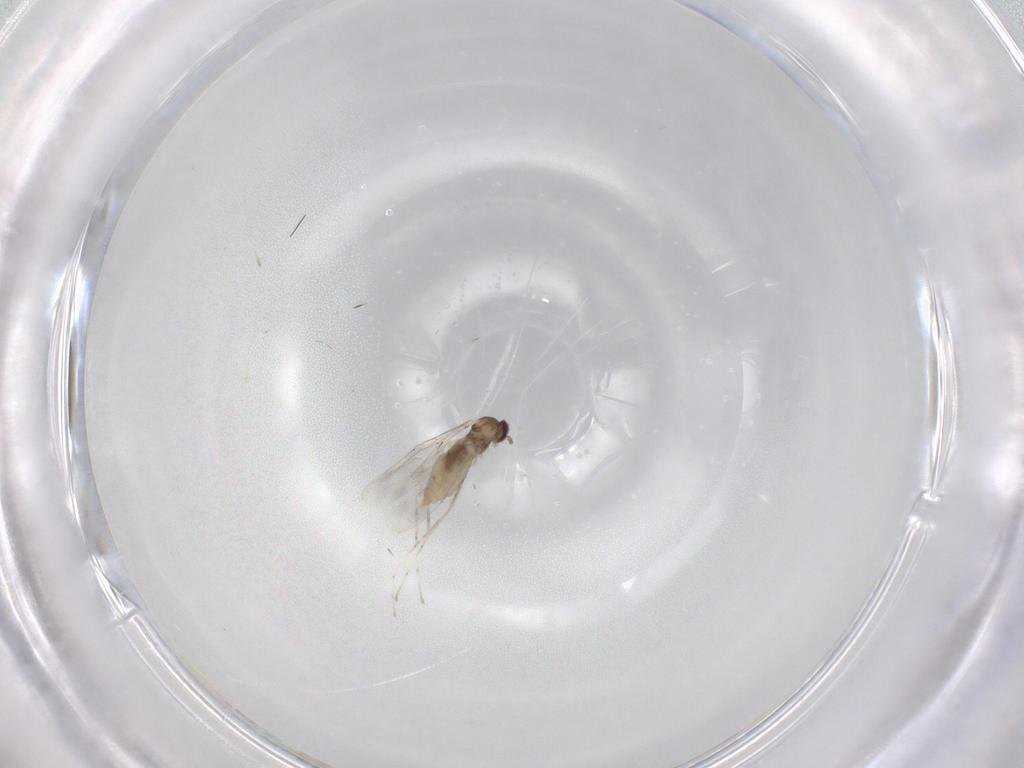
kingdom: Animalia
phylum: Arthropoda
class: Insecta
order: Diptera
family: Cecidomyiidae
